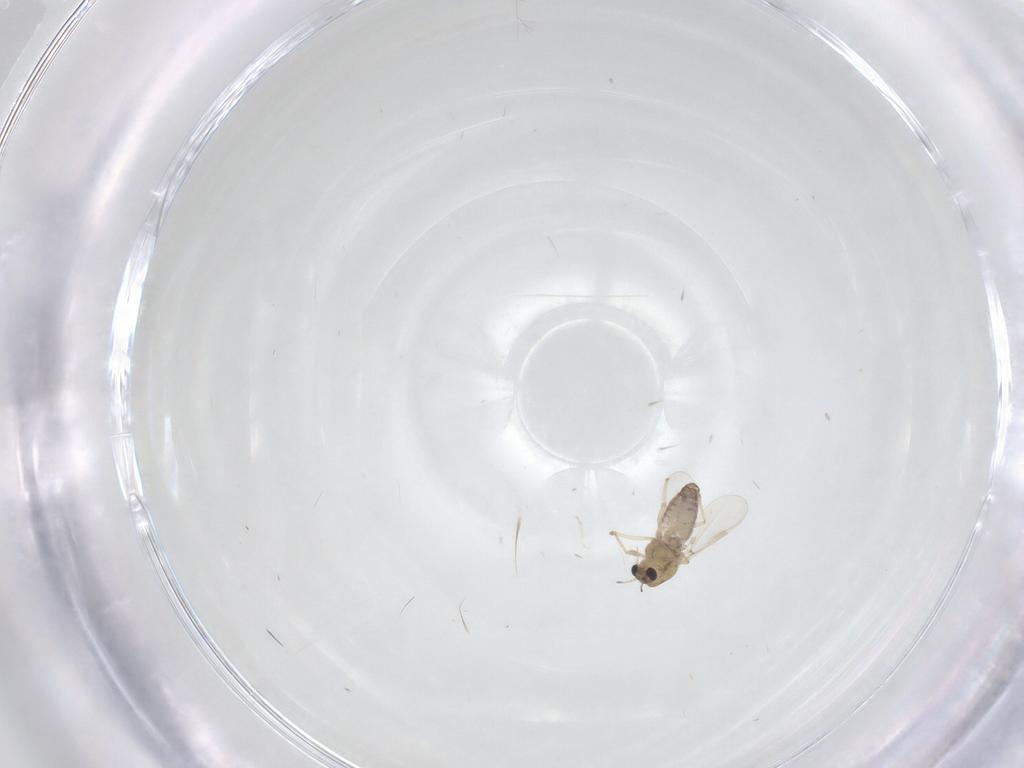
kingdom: Animalia
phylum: Arthropoda
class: Insecta
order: Diptera
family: Chironomidae
